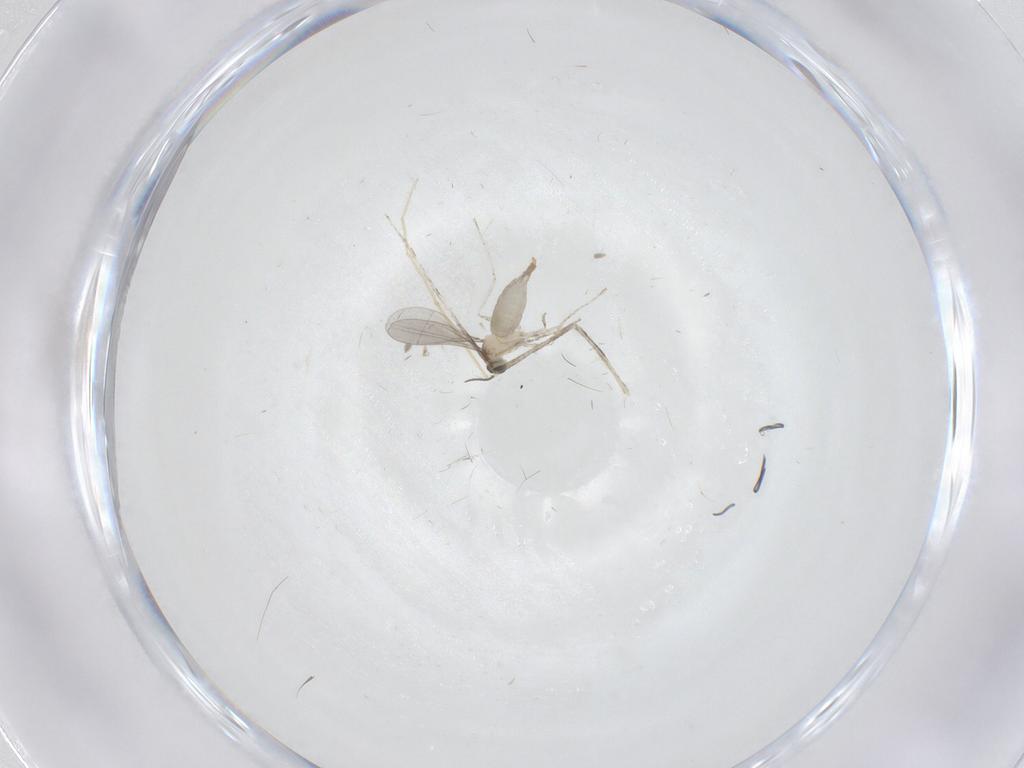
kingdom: Animalia
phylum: Arthropoda
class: Insecta
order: Diptera
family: Cecidomyiidae
